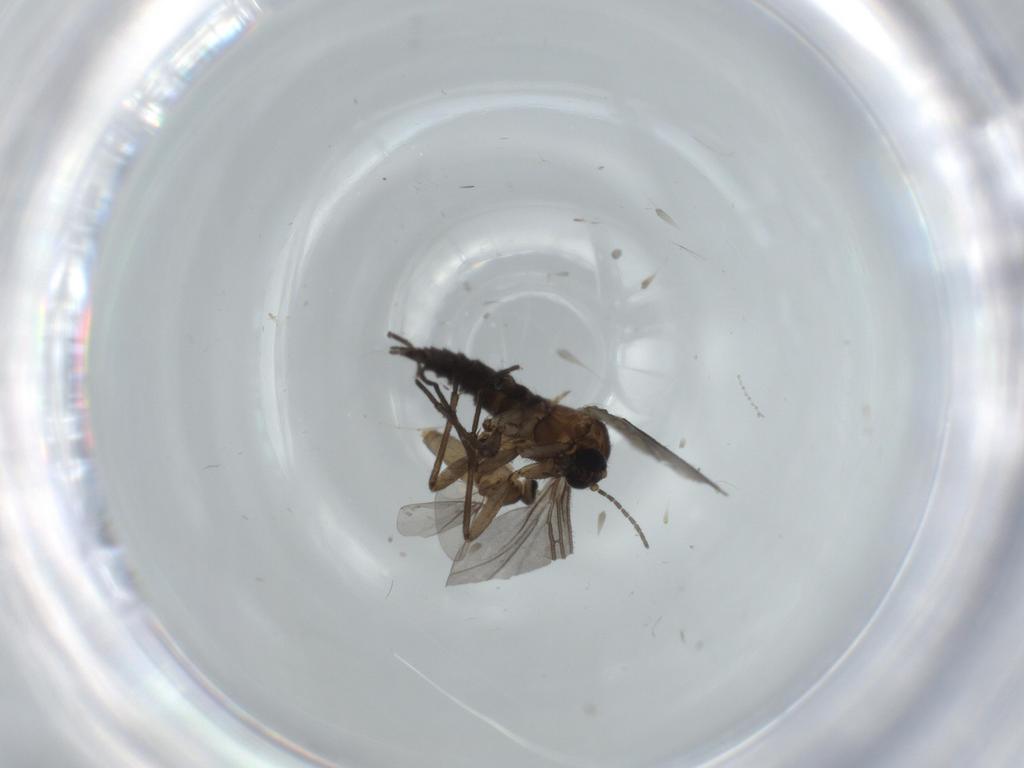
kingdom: Animalia
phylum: Arthropoda
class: Insecta
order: Diptera
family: Cecidomyiidae
